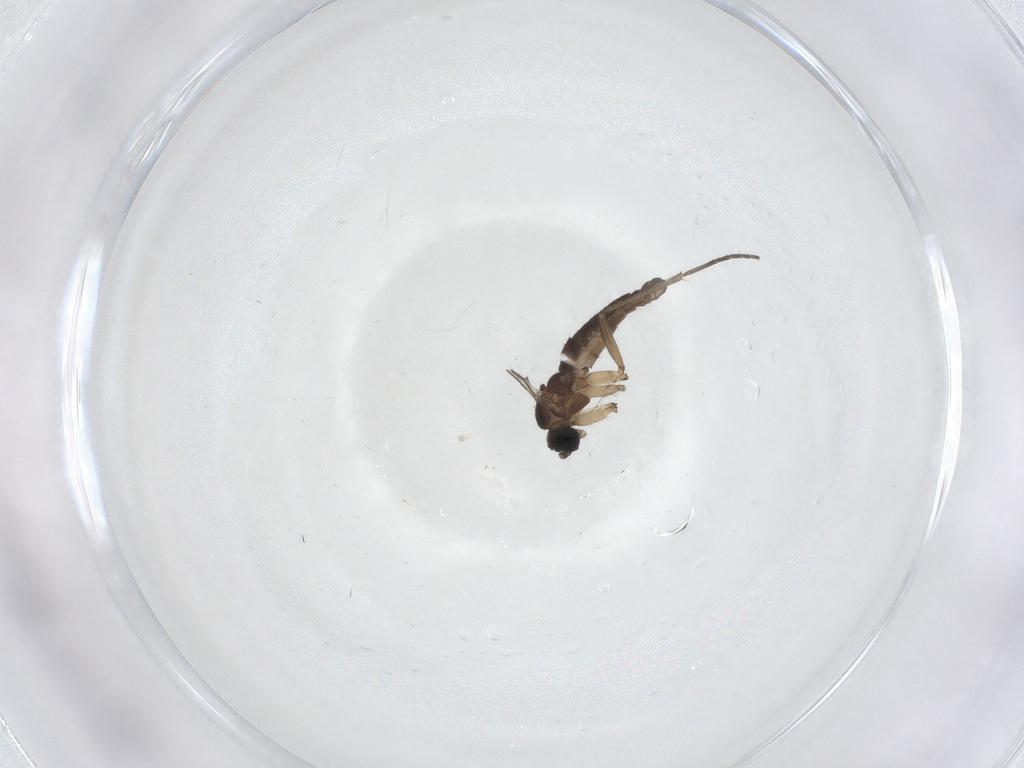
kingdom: Animalia
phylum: Arthropoda
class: Insecta
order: Diptera
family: Sciaridae
